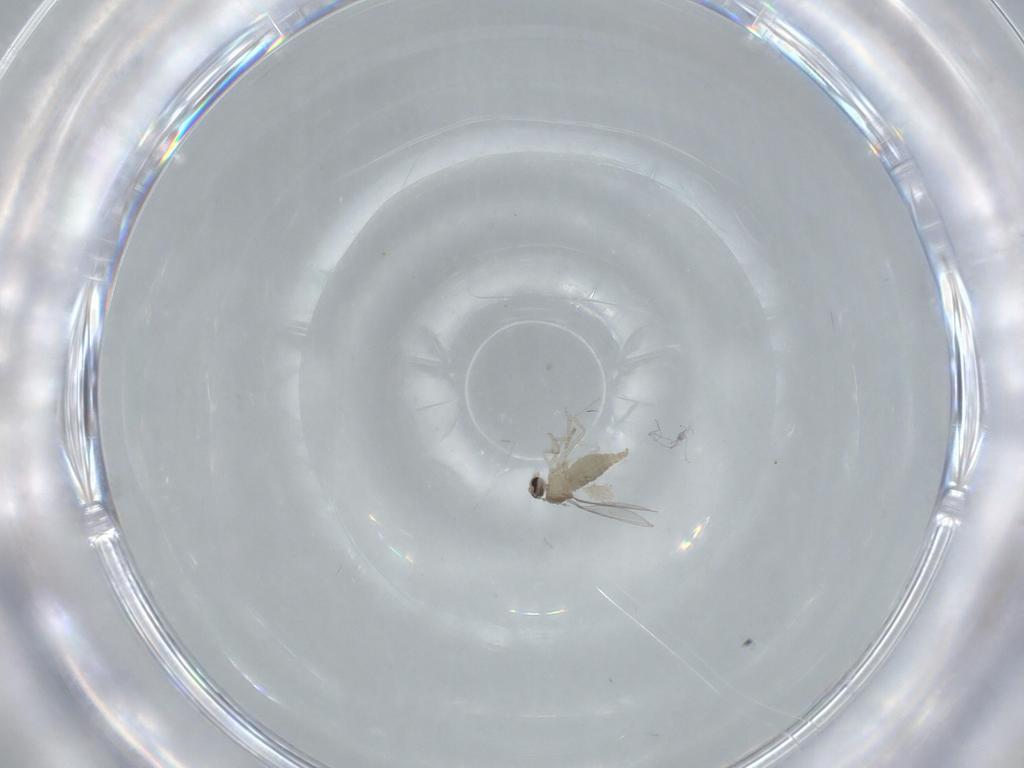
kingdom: Animalia
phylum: Arthropoda
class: Insecta
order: Diptera
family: Cecidomyiidae
